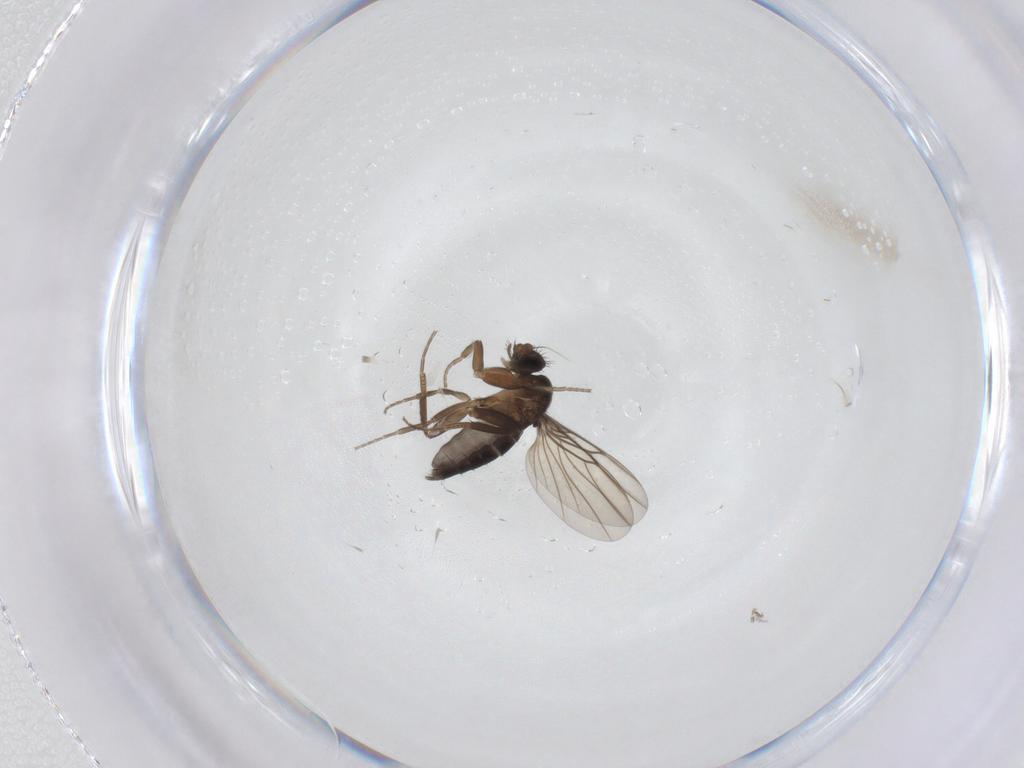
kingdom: Animalia
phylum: Arthropoda
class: Insecta
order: Diptera
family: Phoridae
